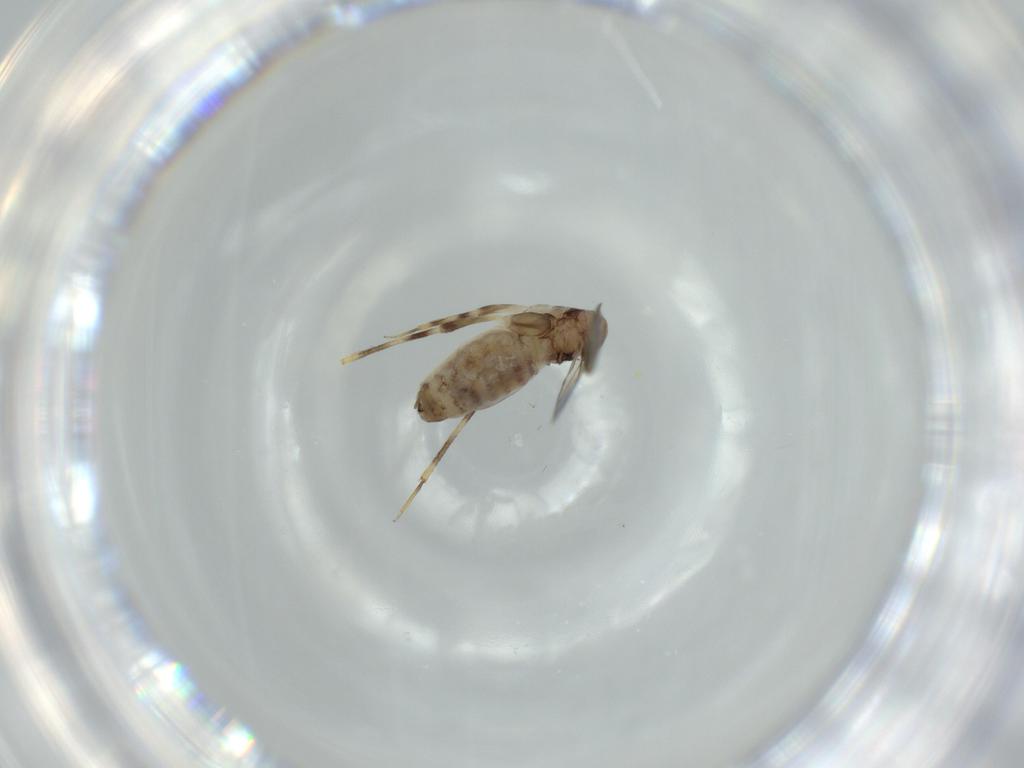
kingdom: Animalia
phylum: Arthropoda
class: Insecta
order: Psocodea
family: Lepidopsocidae
